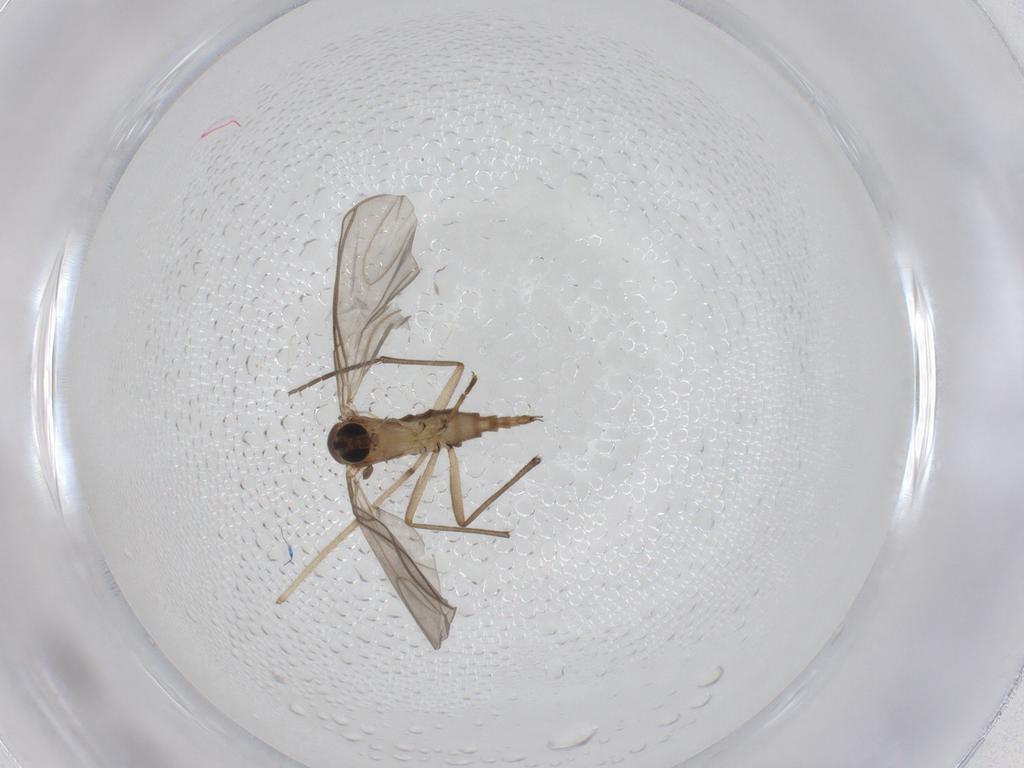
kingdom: Animalia
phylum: Arthropoda
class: Insecta
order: Diptera
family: Sciaridae
